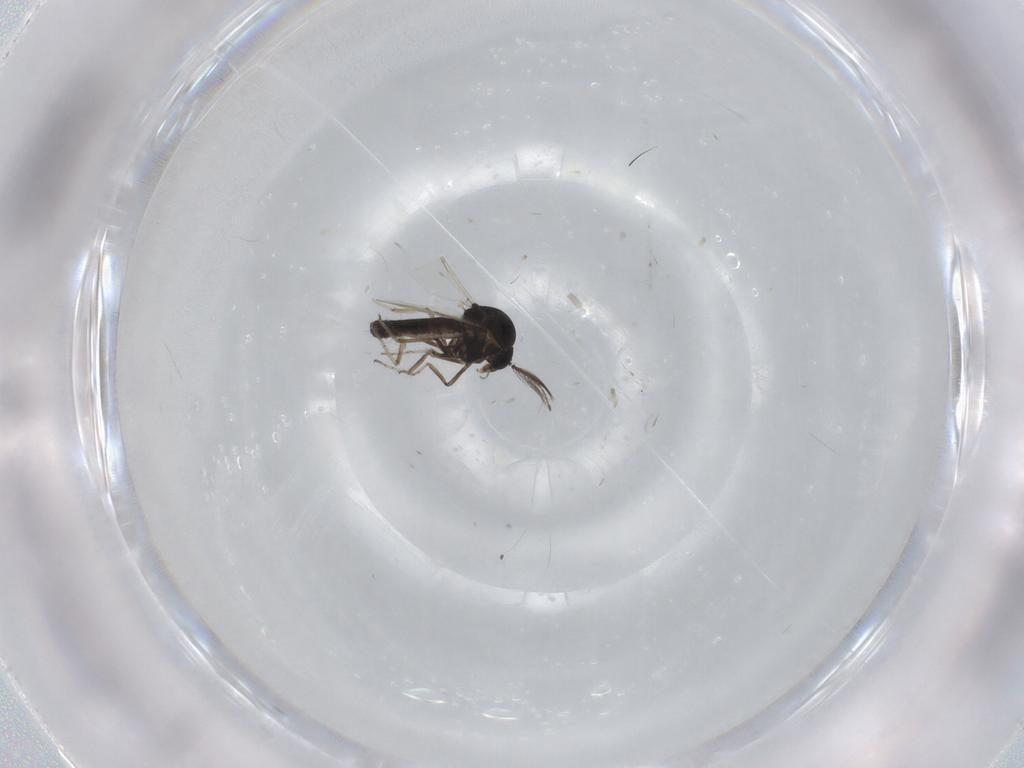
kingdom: Animalia
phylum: Arthropoda
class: Insecta
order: Diptera
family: Ceratopogonidae
